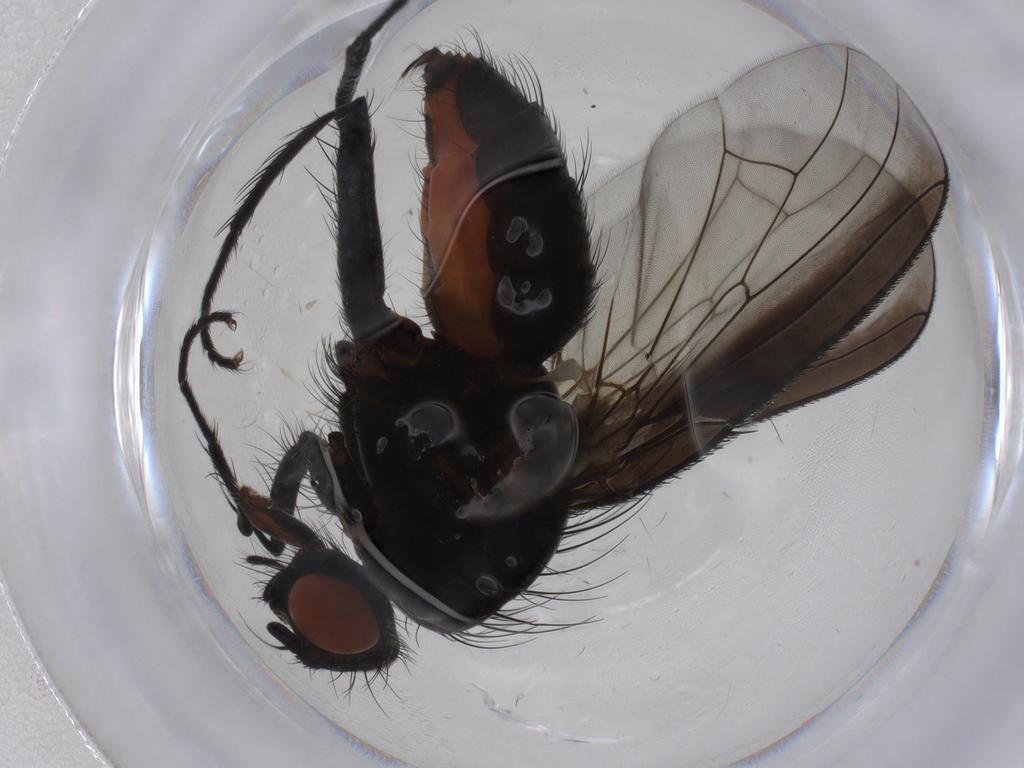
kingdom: Animalia
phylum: Arthropoda
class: Insecta
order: Diptera
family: Anthomyiidae
